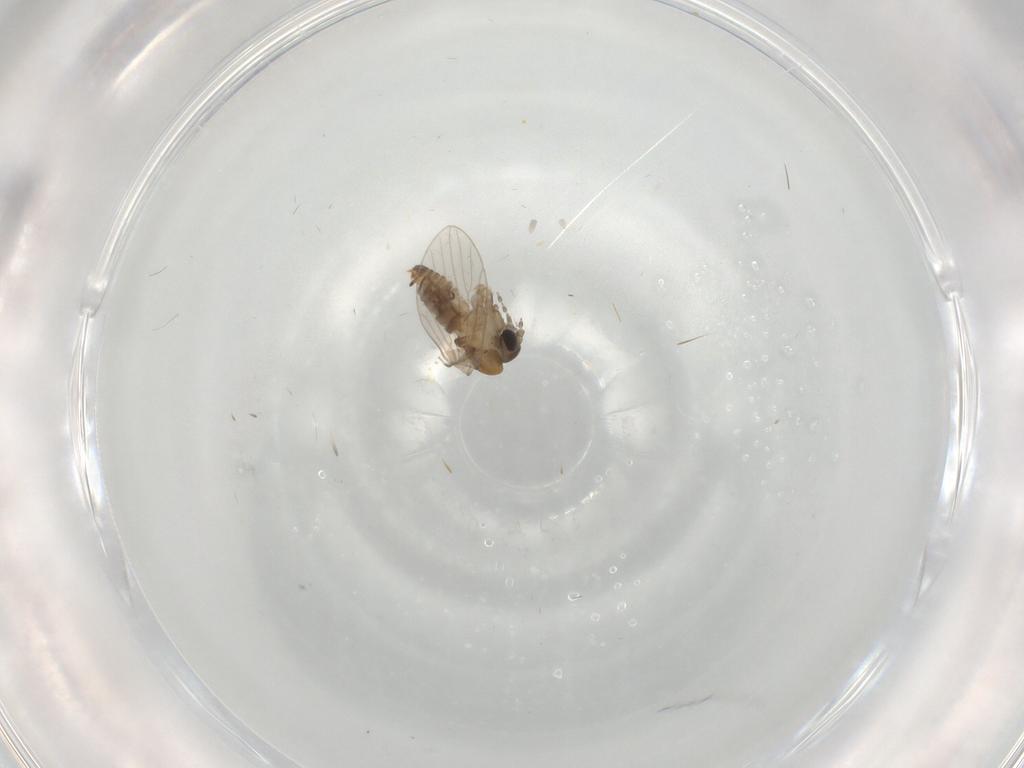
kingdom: Animalia
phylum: Arthropoda
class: Insecta
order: Diptera
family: Psychodidae
